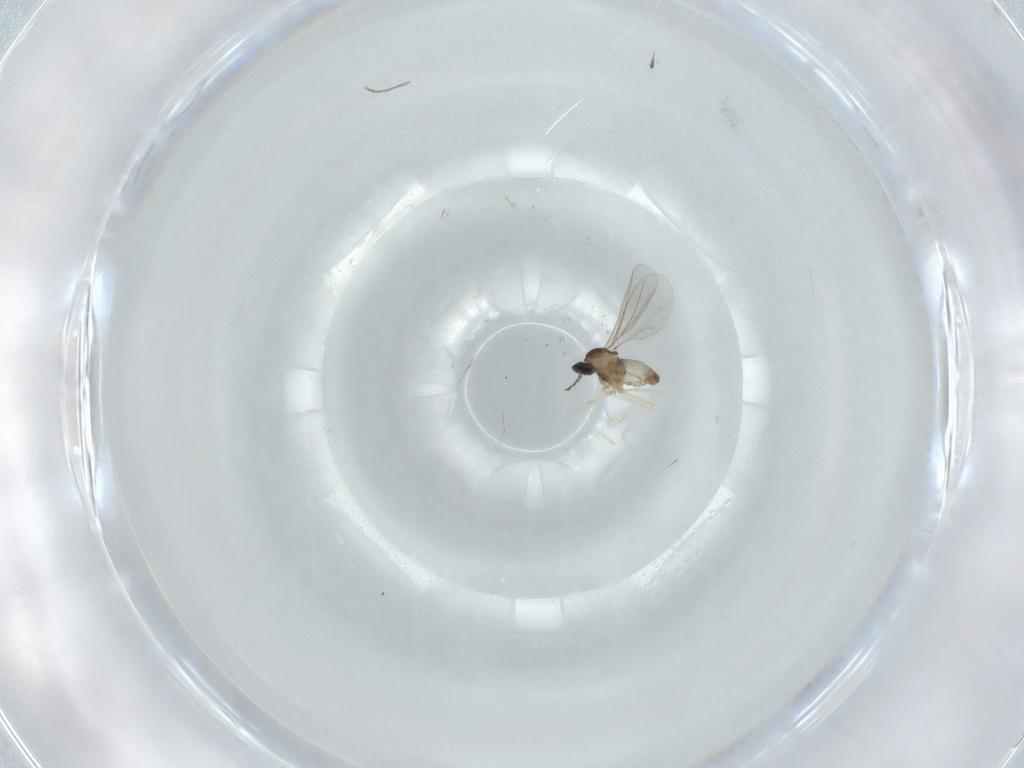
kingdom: Animalia
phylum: Arthropoda
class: Insecta
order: Diptera
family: Cecidomyiidae
